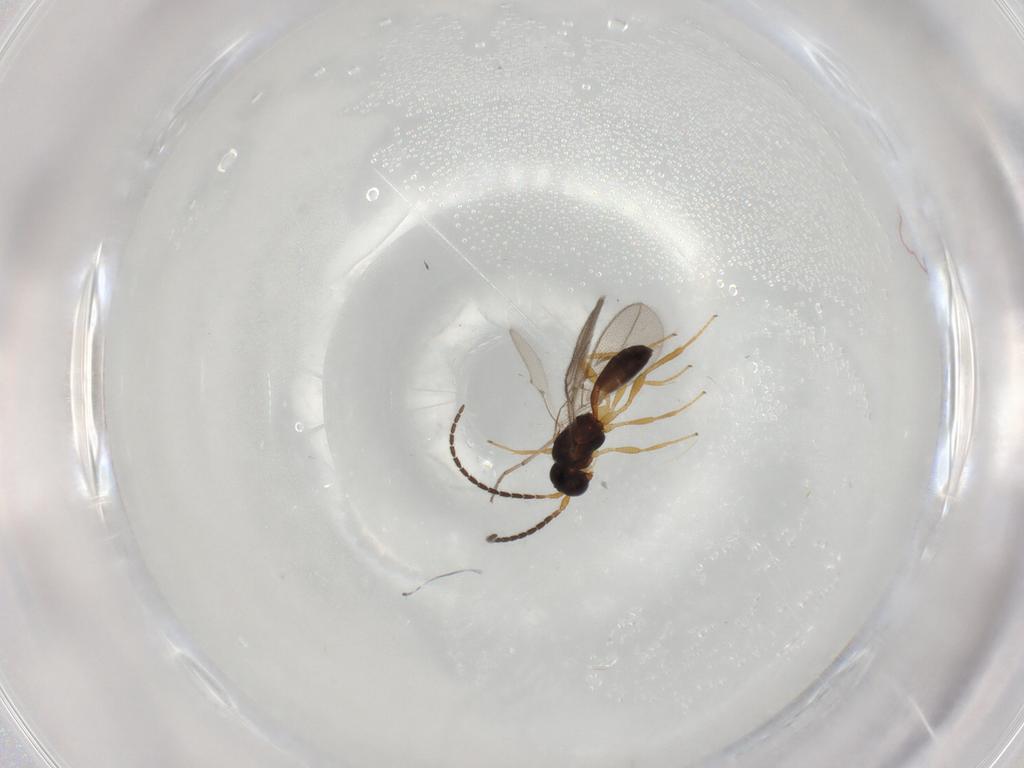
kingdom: Animalia
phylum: Arthropoda
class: Insecta
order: Hymenoptera
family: Braconidae
